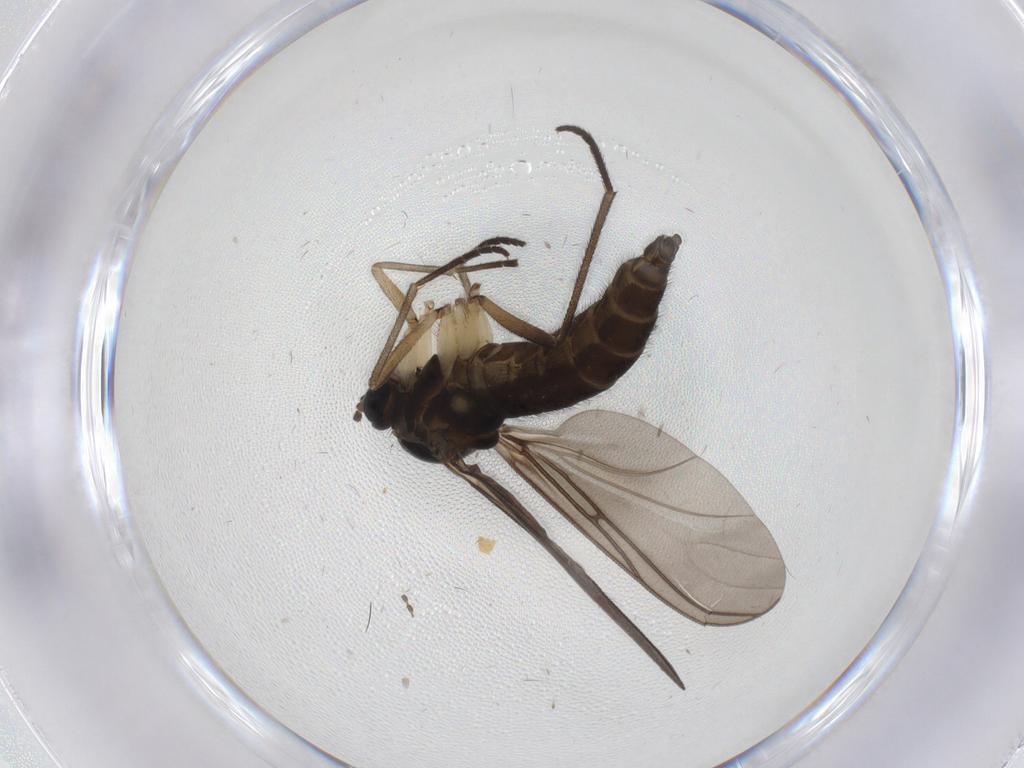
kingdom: Animalia
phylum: Arthropoda
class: Insecta
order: Diptera
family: Sciaridae
